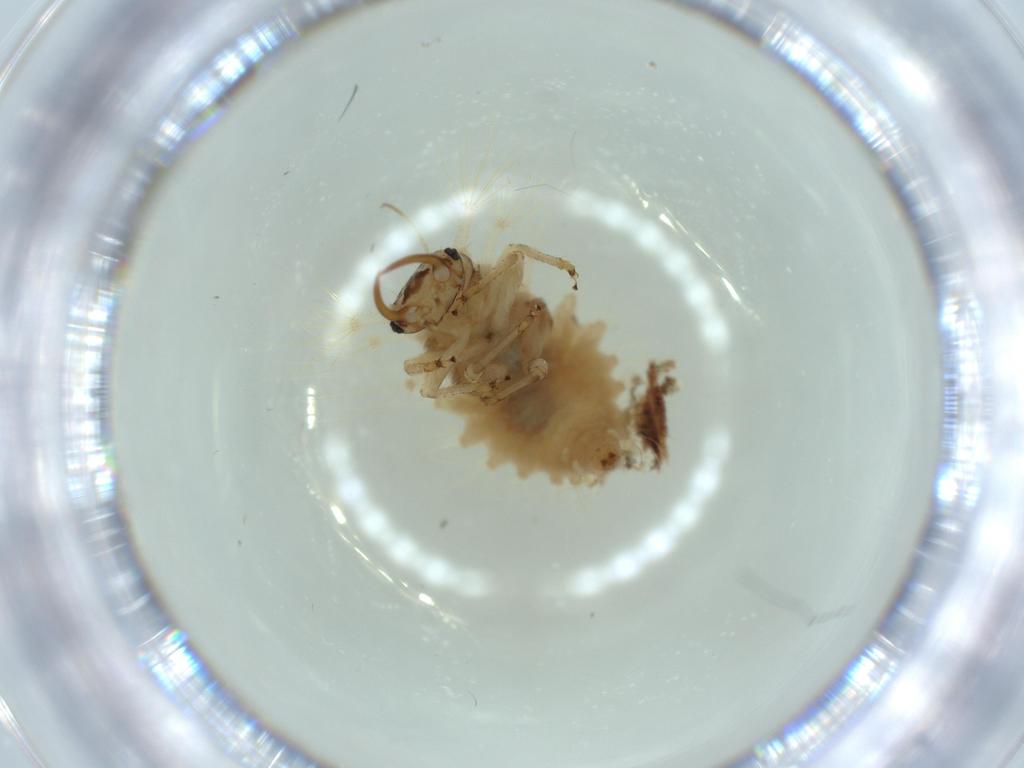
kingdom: Animalia
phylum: Arthropoda
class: Insecta
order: Neuroptera
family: Chrysopidae
